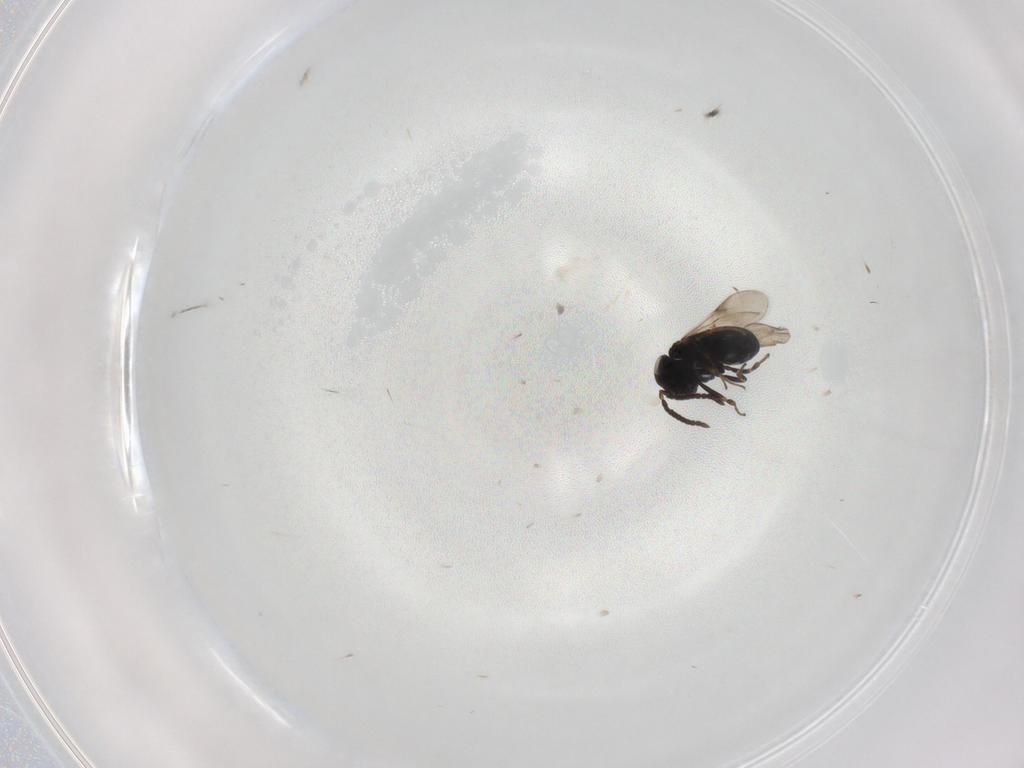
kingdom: Animalia
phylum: Arthropoda
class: Insecta
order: Hymenoptera
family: Scelionidae
